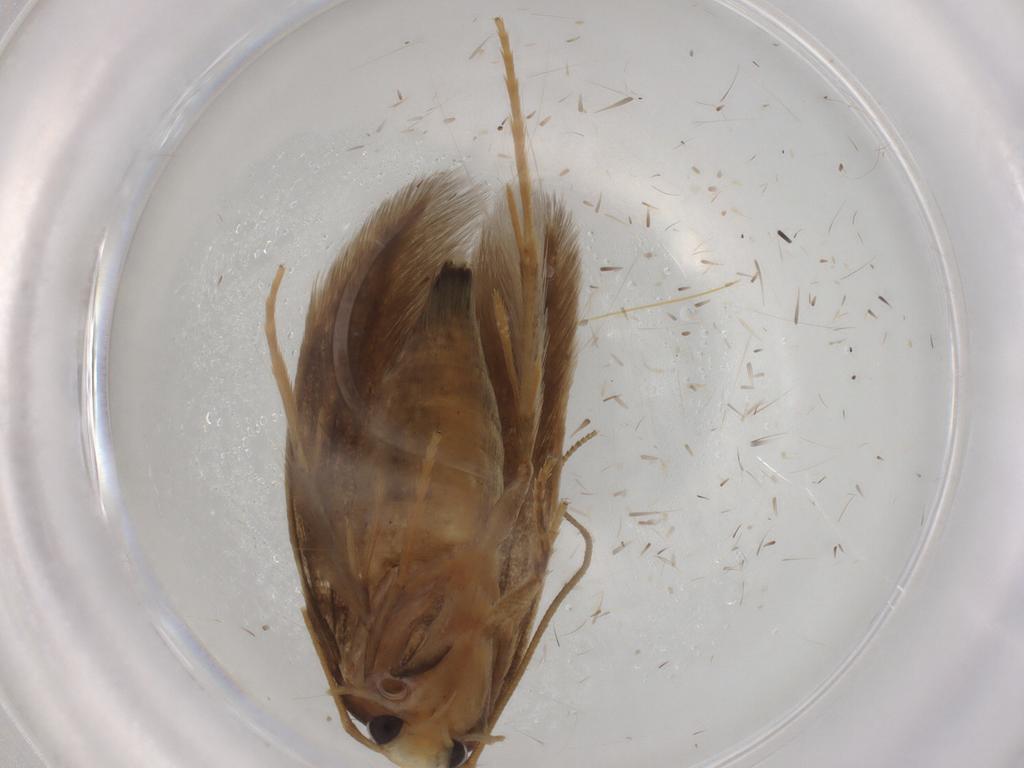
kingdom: Animalia
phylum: Arthropoda
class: Insecta
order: Lepidoptera
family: Tineidae
